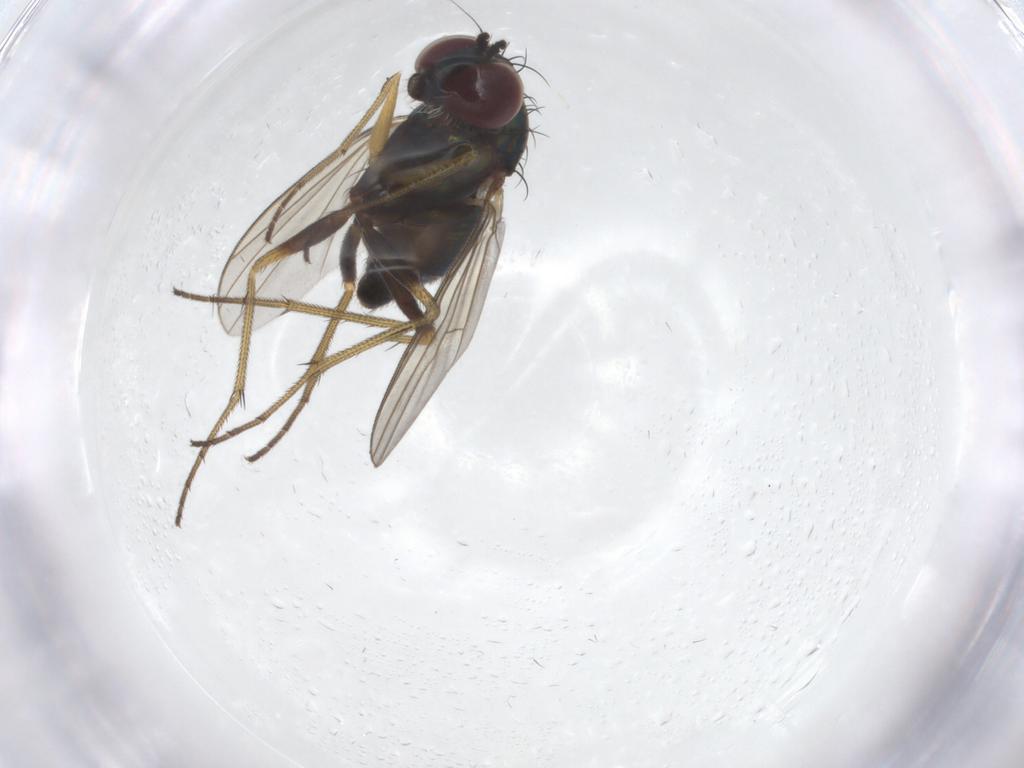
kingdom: Animalia
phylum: Arthropoda
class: Insecta
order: Diptera
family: Dolichopodidae
